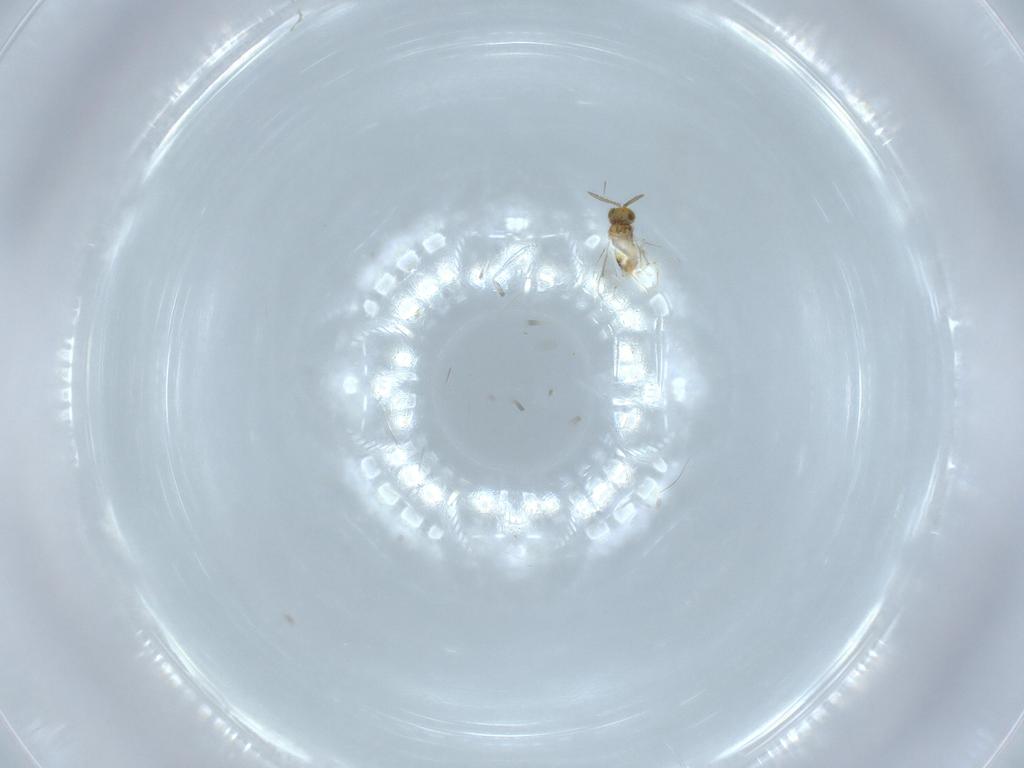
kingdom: Animalia
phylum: Arthropoda
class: Insecta
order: Hymenoptera
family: Aphelinidae
